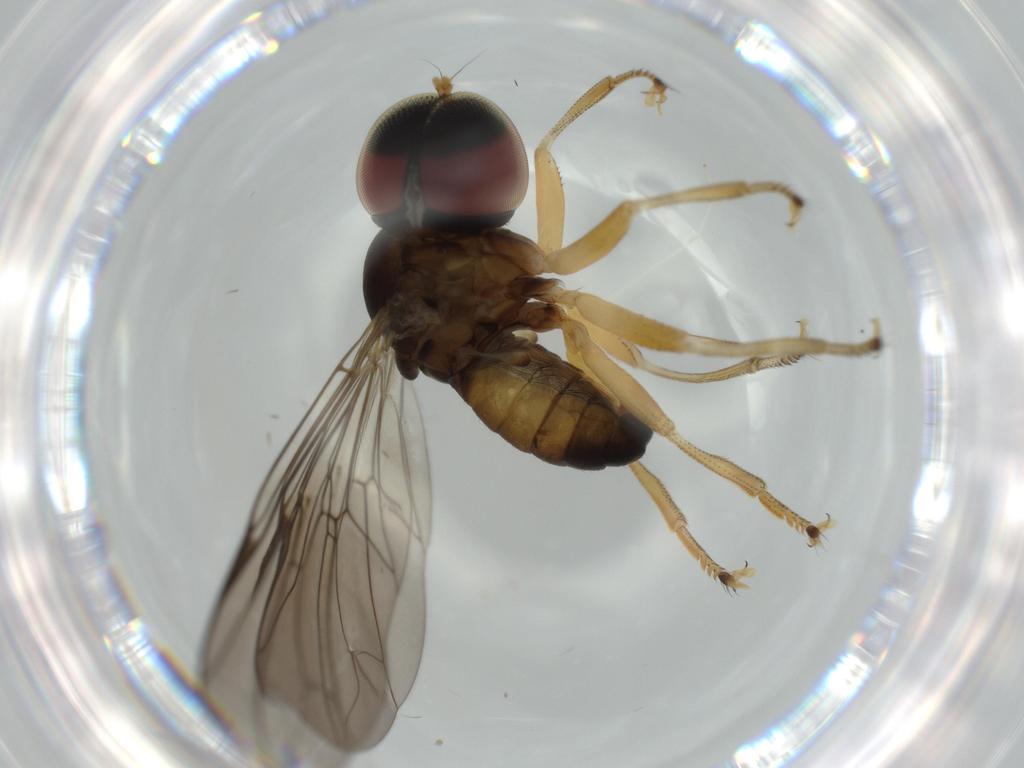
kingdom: Animalia
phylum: Arthropoda
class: Insecta
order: Diptera
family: Pipunculidae
